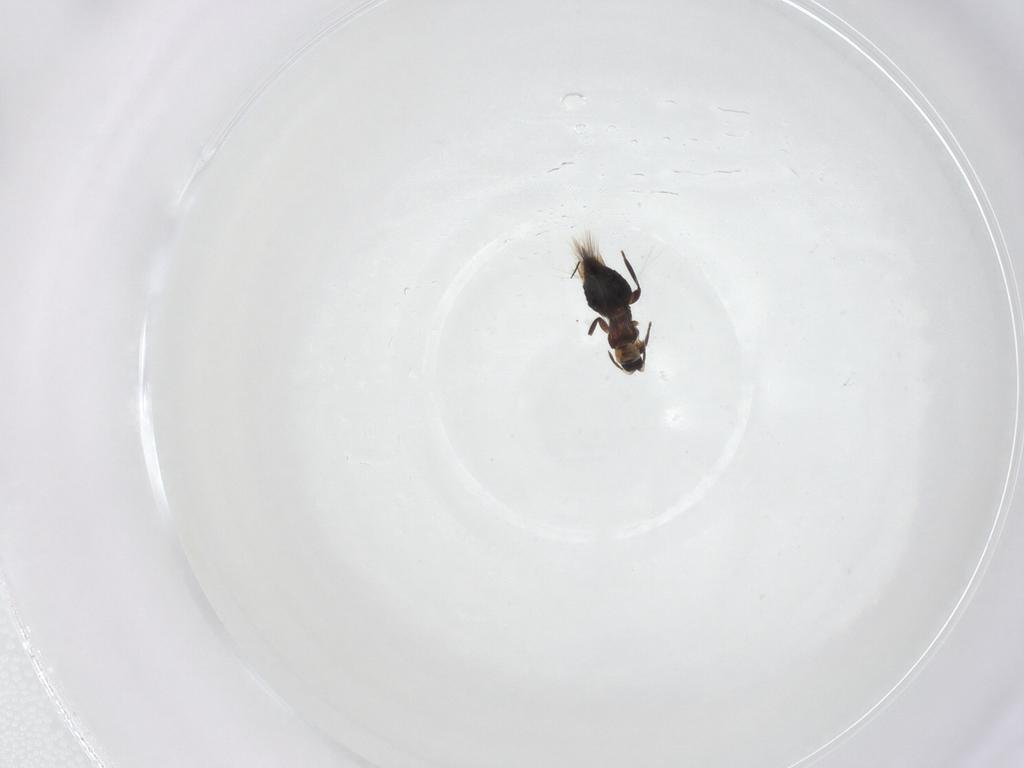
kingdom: Animalia
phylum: Arthropoda
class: Insecta
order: Thysanoptera
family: Aeolothripidae
